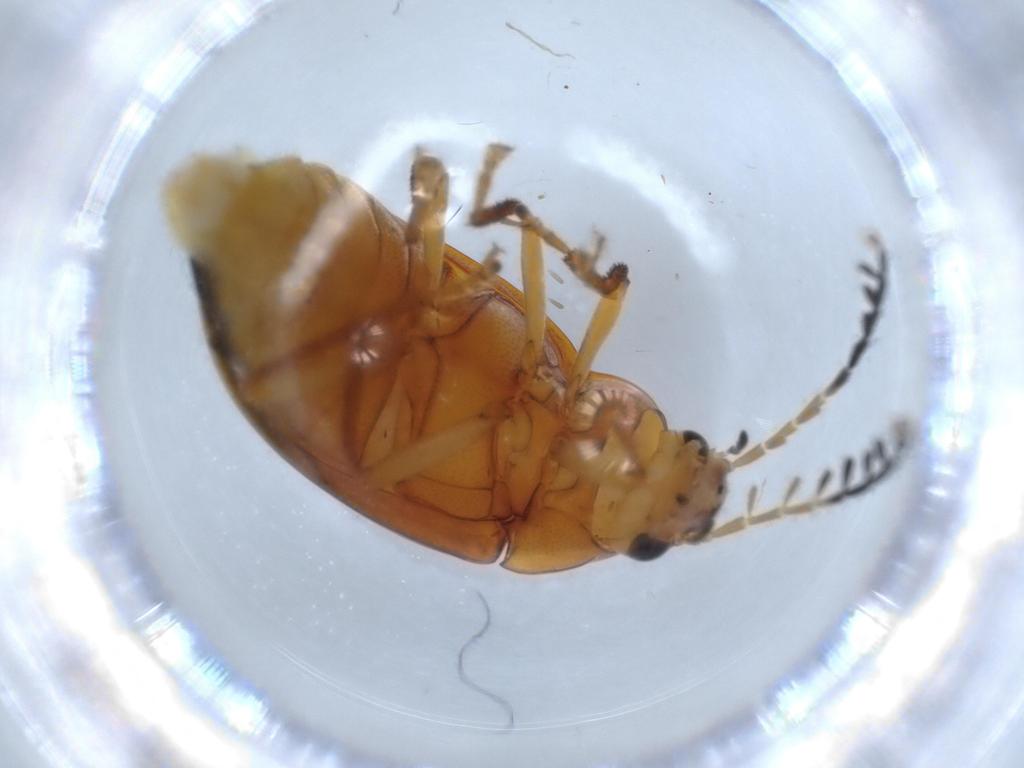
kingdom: Animalia
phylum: Arthropoda
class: Insecta
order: Coleoptera
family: Ptilodactylidae
